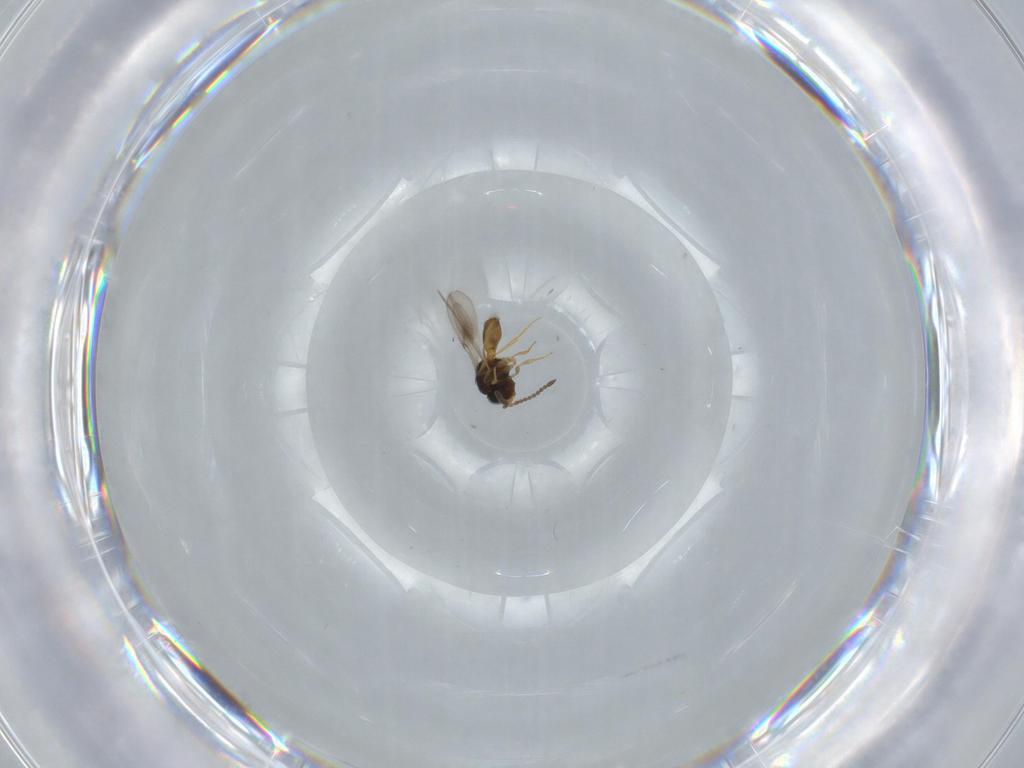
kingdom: Animalia
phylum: Arthropoda
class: Insecta
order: Hymenoptera
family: Scelionidae
